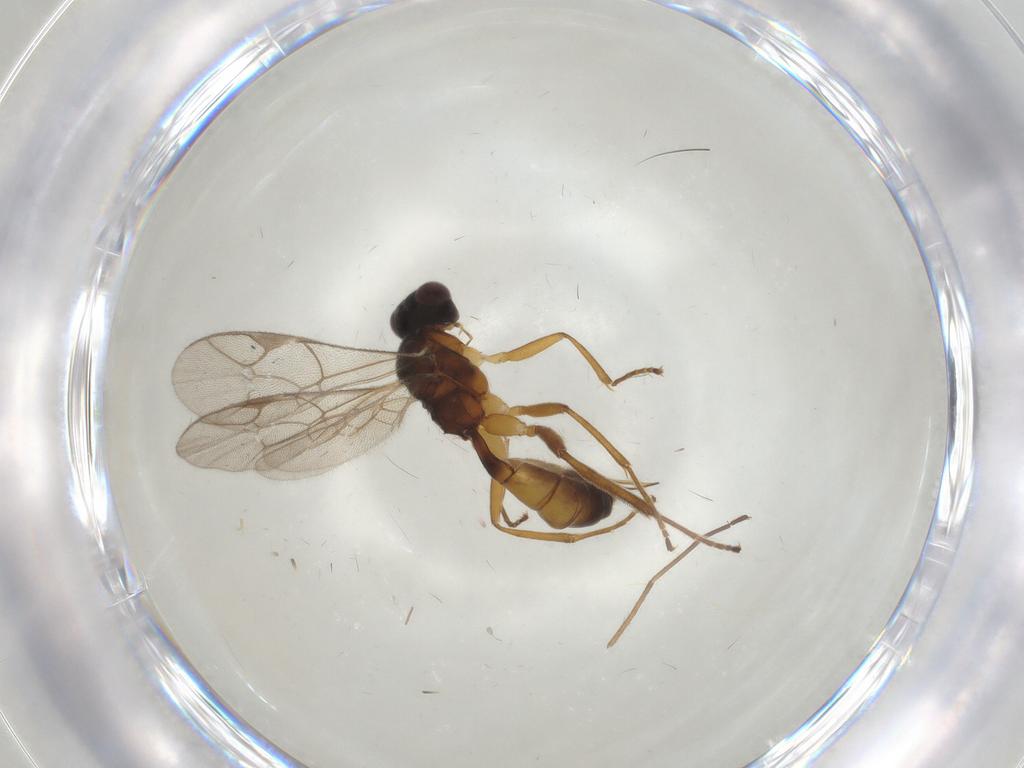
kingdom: Animalia
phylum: Arthropoda
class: Insecta
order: Hymenoptera
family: Ichneumonidae
